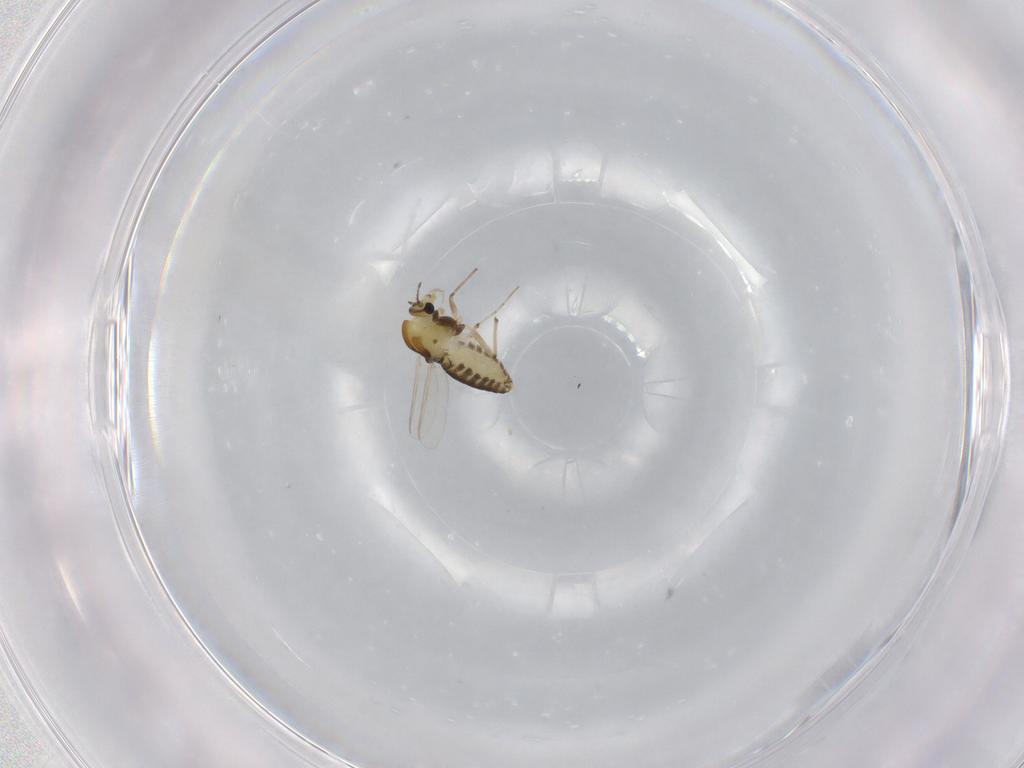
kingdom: Animalia
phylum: Arthropoda
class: Insecta
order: Diptera
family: Chironomidae
